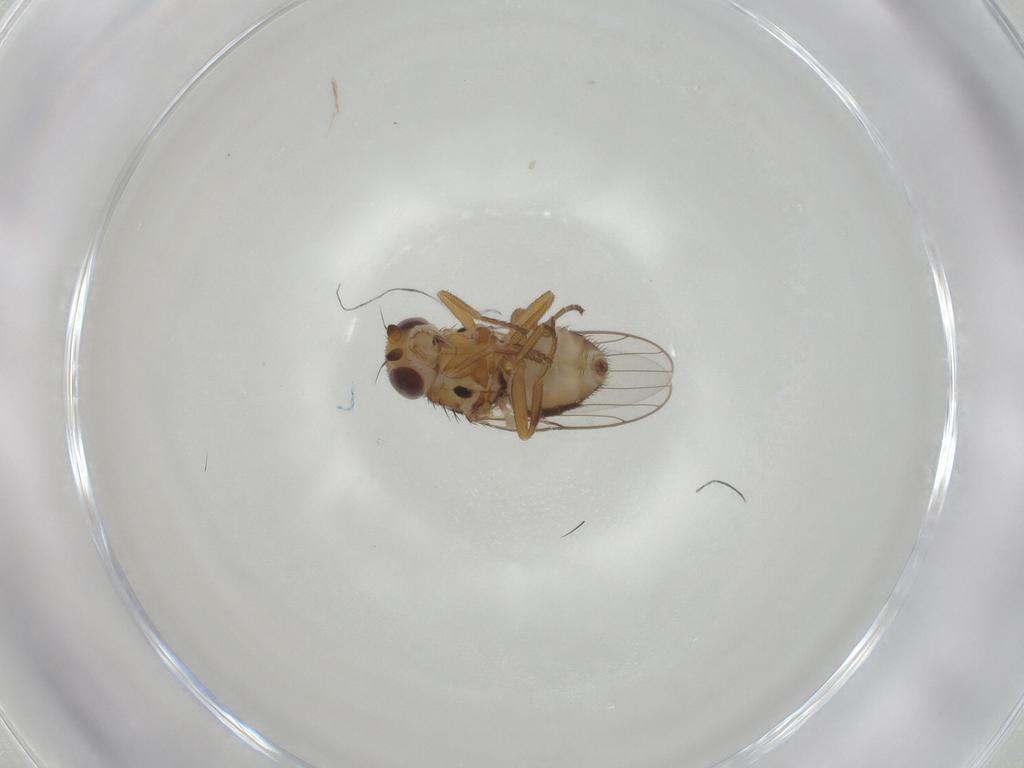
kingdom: Animalia
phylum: Arthropoda
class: Insecta
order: Diptera
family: Chloropidae
